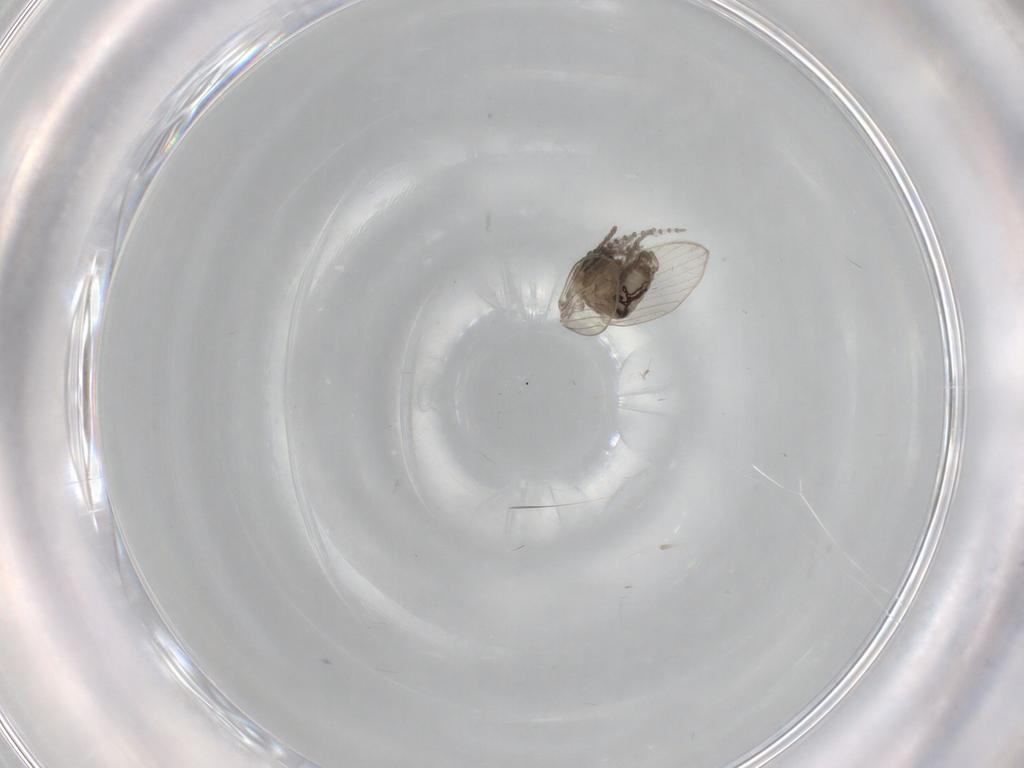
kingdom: Animalia
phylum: Arthropoda
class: Insecta
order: Diptera
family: Psychodidae
